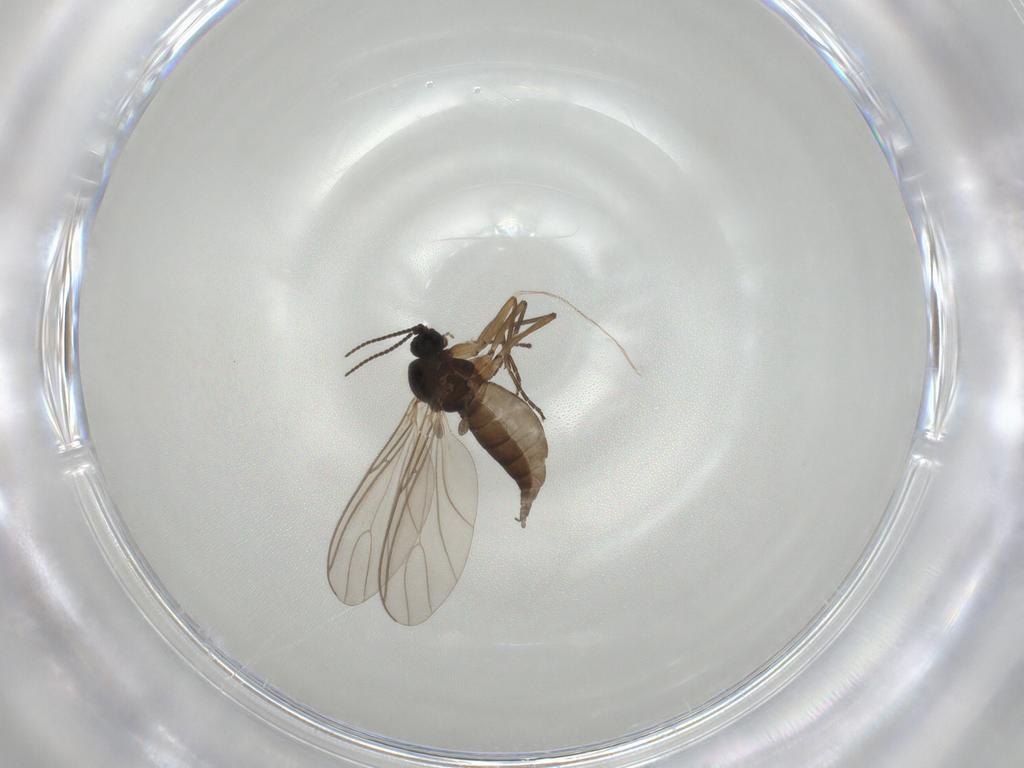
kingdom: Animalia
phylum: Arthropoda
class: Insecta
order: Diptera
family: Sciaridae
